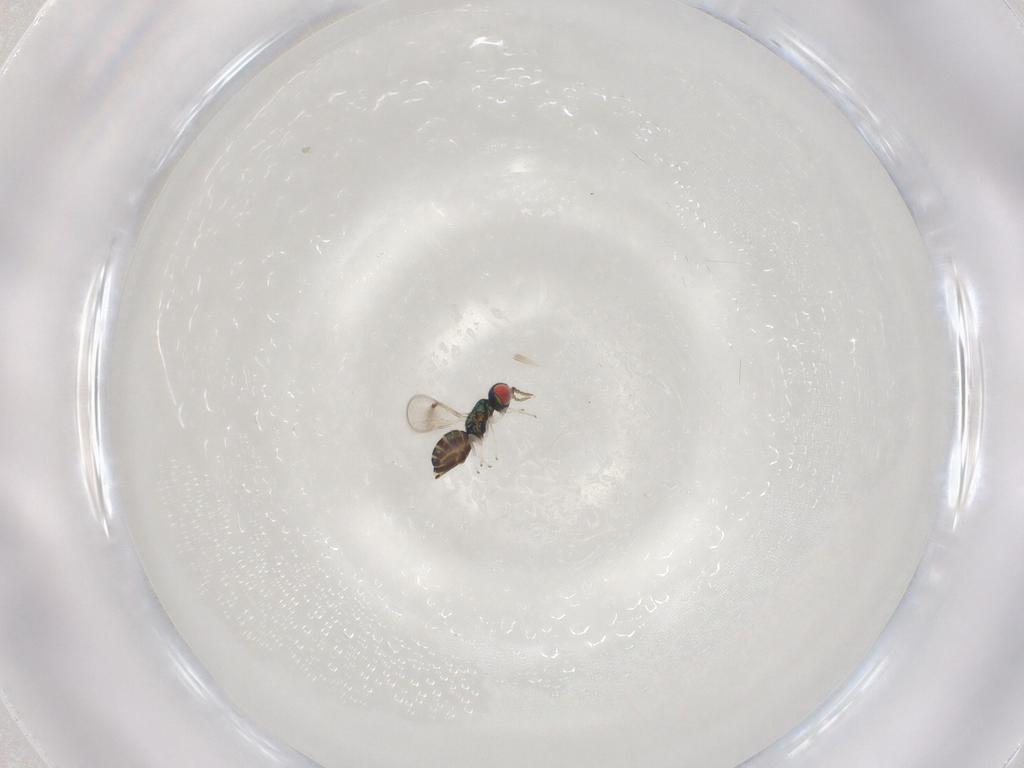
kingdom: Animalia
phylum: Arthropoda
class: Insecta
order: Hymenoptera
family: Eulophidae
